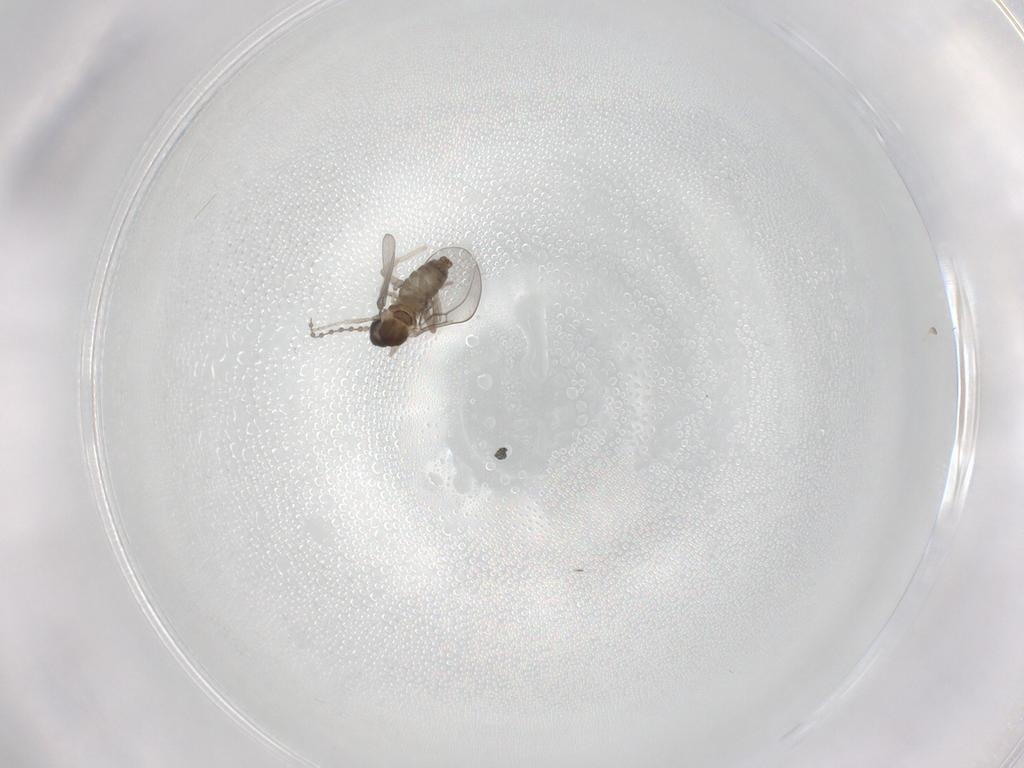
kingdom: Animalia
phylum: Arthropoda
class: Insecta
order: Diptera
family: Cecidomyiidae
